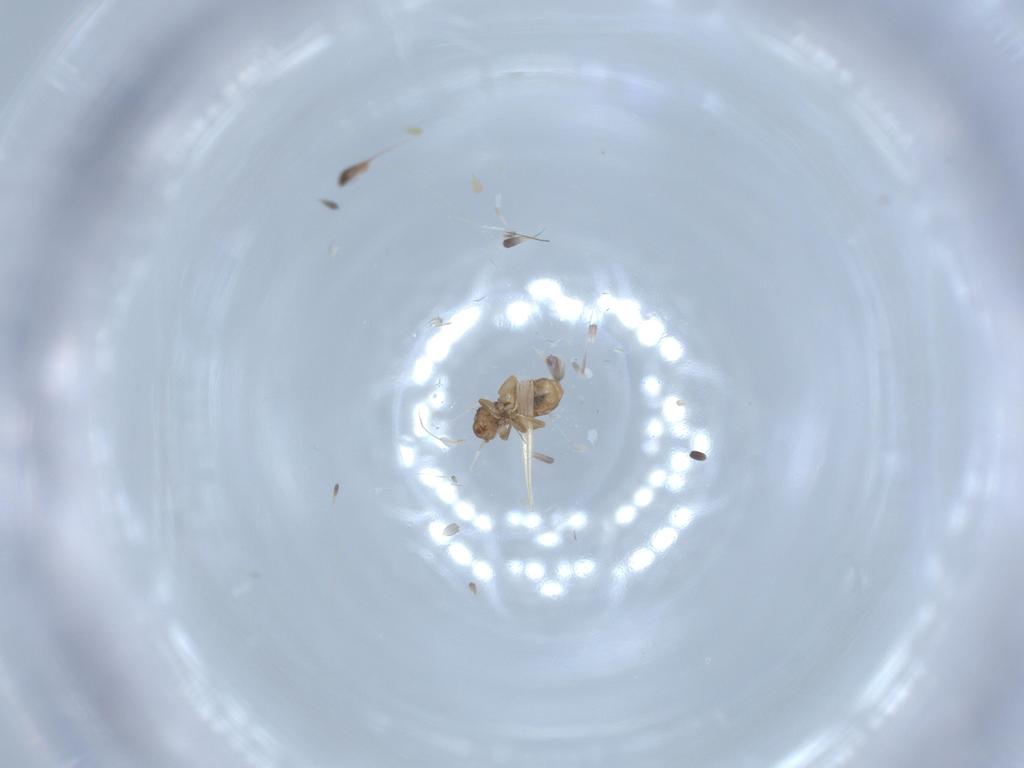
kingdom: Animalia
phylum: Arthropoda
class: Insecta
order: Psocodea
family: Liposcelididae
